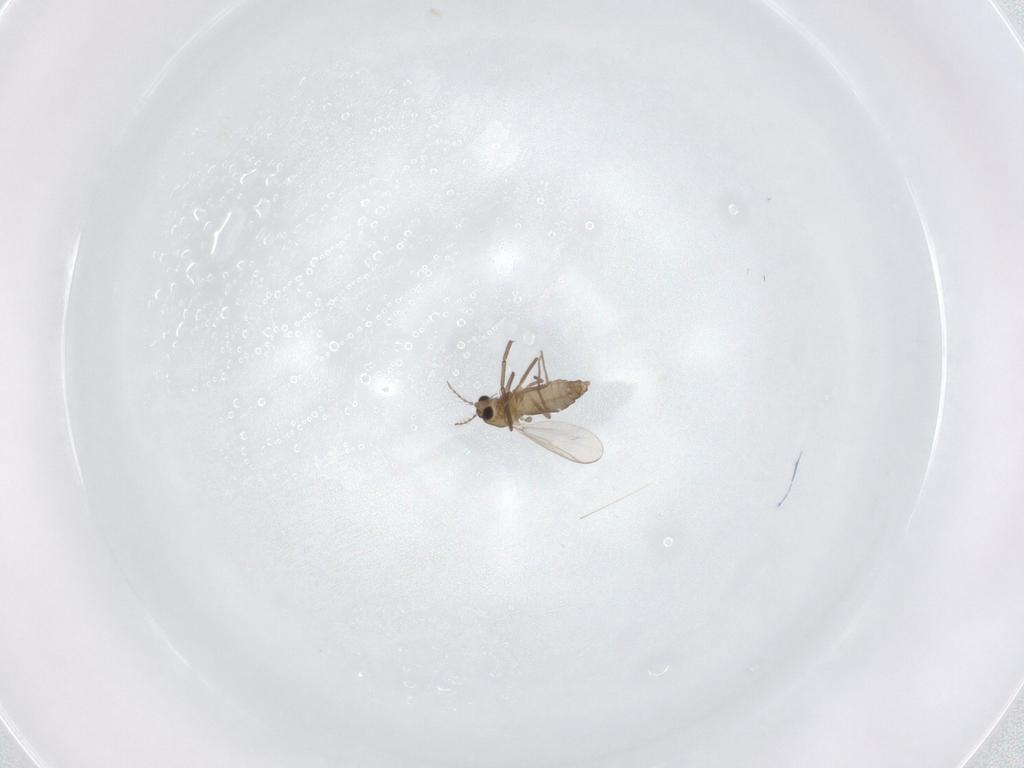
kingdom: Animalia
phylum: Arthropoda
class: Insecta
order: Diptera
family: Chironomidae
